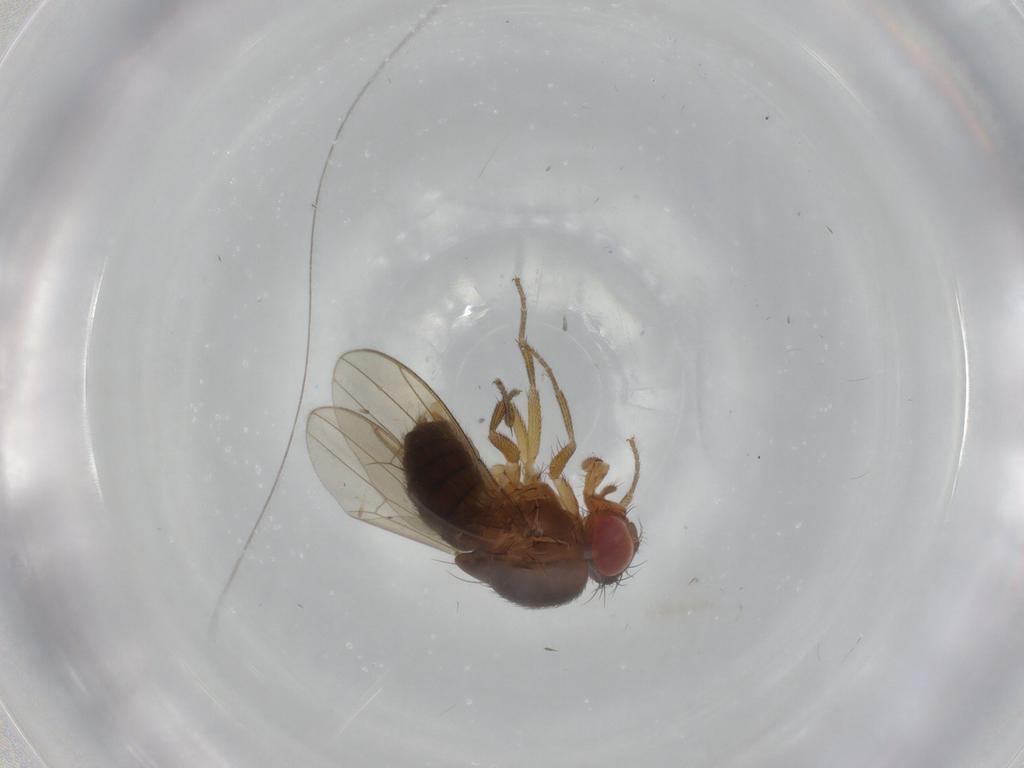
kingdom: Animalia
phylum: Arthropoda
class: Insecta
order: Diptera
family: Drosophilidae
